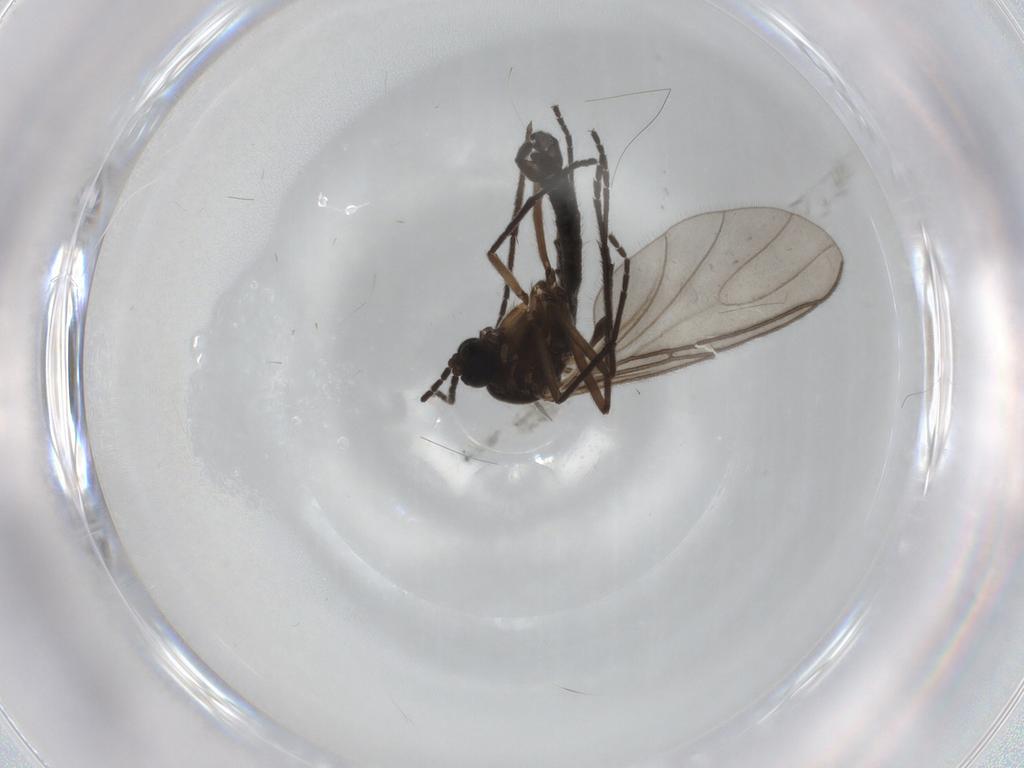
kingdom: Animalia
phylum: Arthropoda
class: Insecta
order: Diptera
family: Sciaridae
